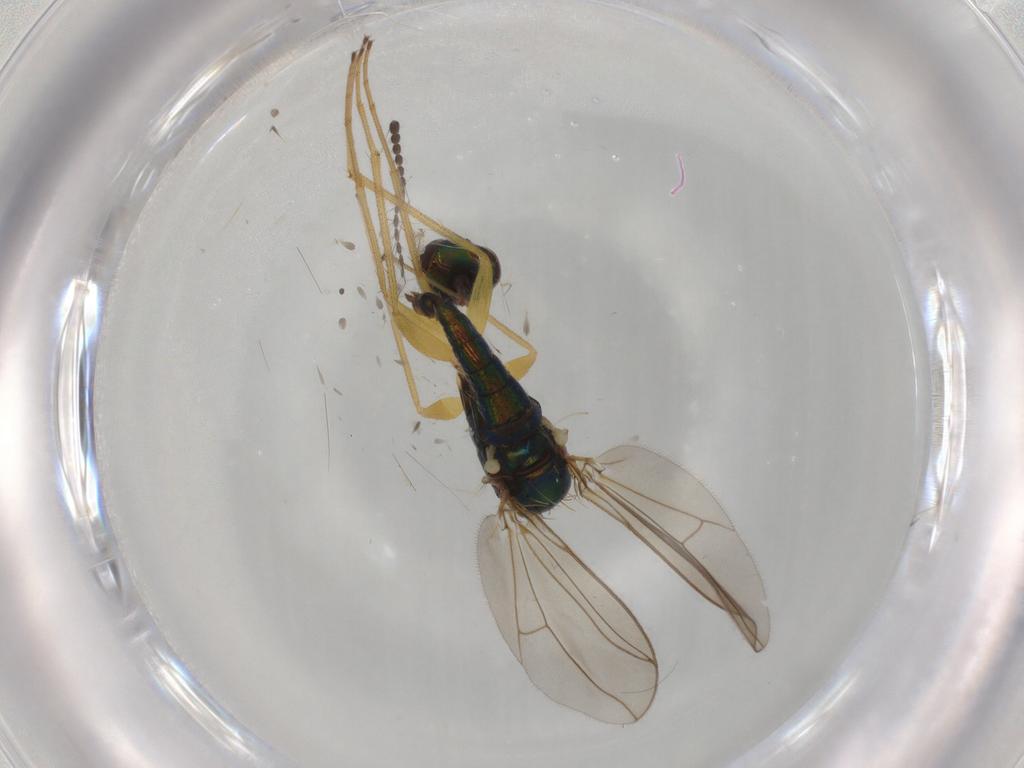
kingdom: Animalia
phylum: Arthropoda
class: Insecta
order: Diptera
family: Dolichopodidae
